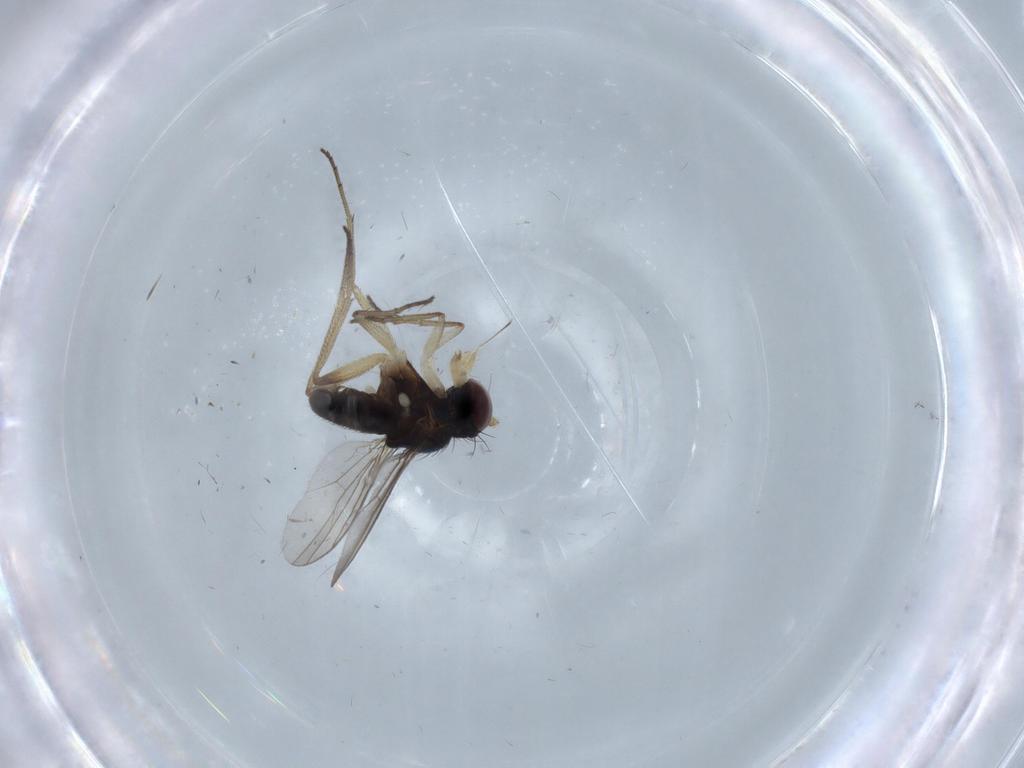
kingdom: Animalia
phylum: Arthropoda
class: Insecta
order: Diptera
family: Dolichopodidae
